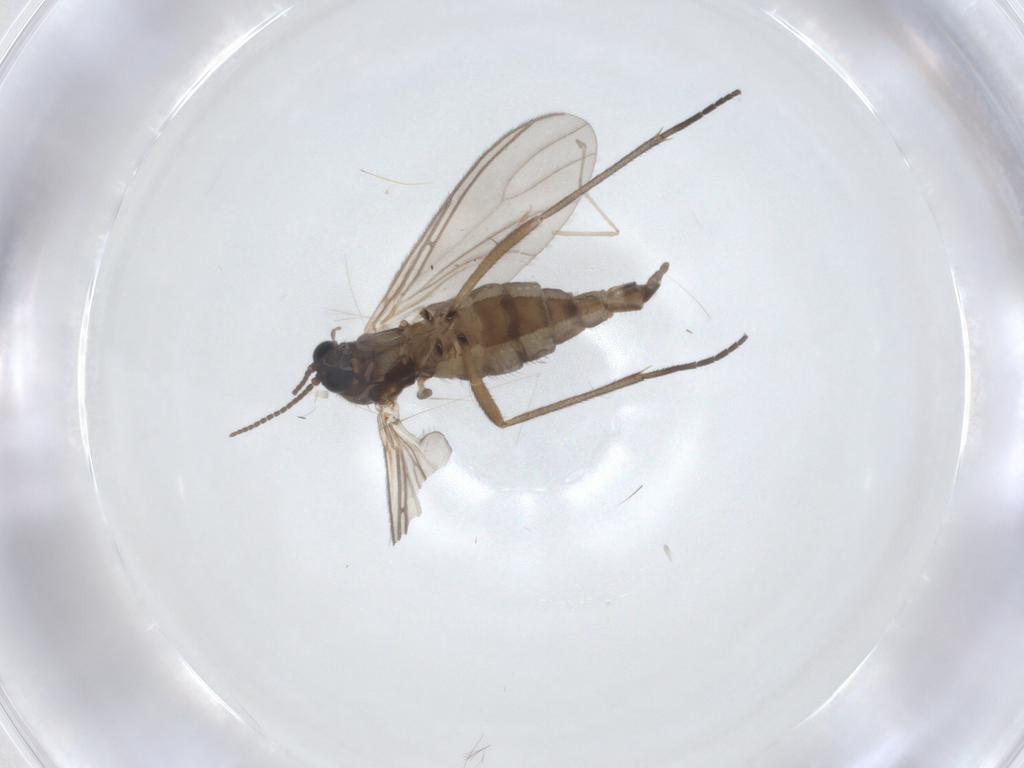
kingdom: Animalia
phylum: Arthropoda
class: Insecta
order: Diptera
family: Sciaridae
